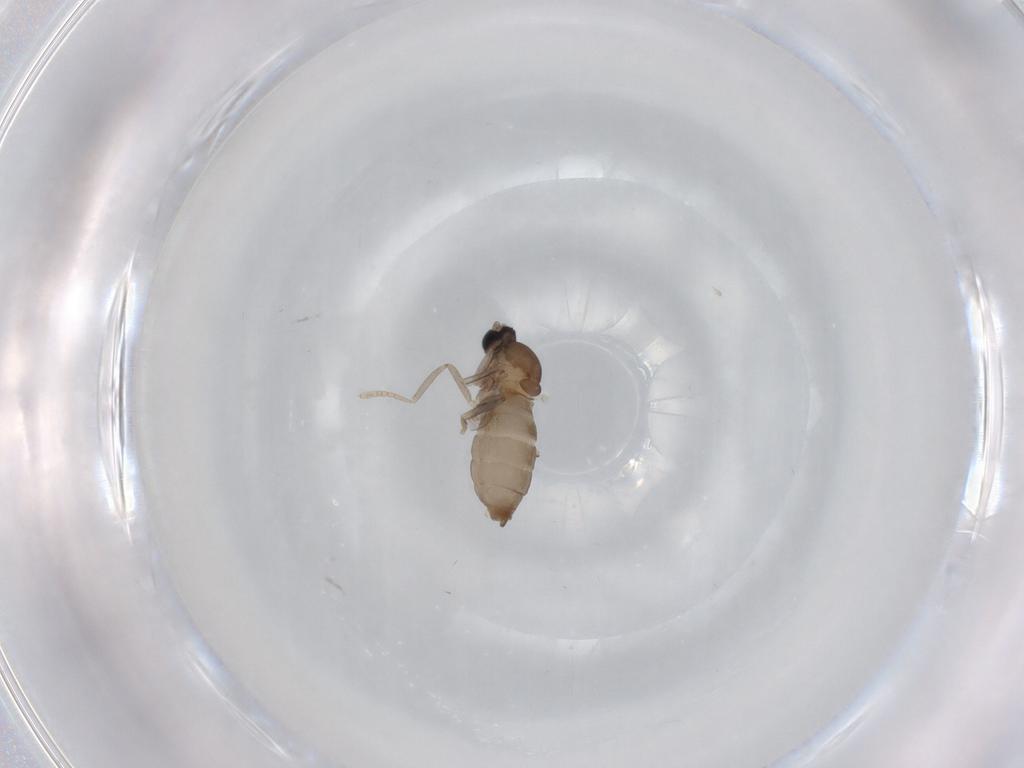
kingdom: Animalia
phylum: Arthropoda
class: Insecta
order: Diptera
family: Cecidomyiidae
